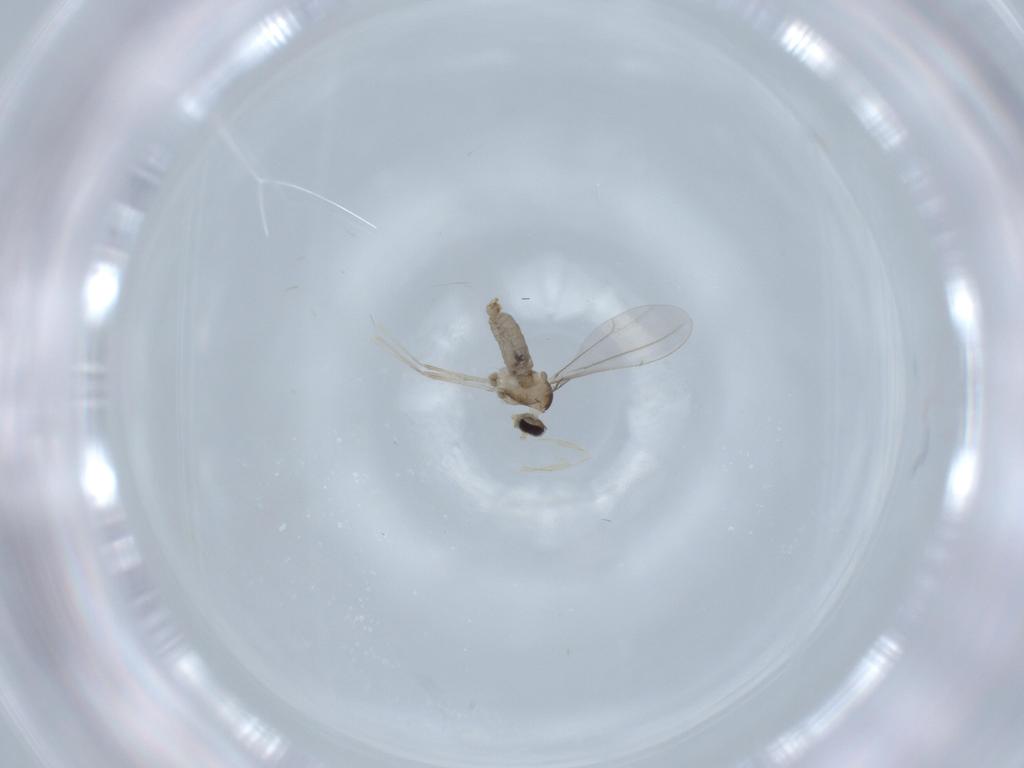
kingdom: Animalia
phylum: Arthropoda
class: Insecta
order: Diptera
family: Cecidomyiidae
